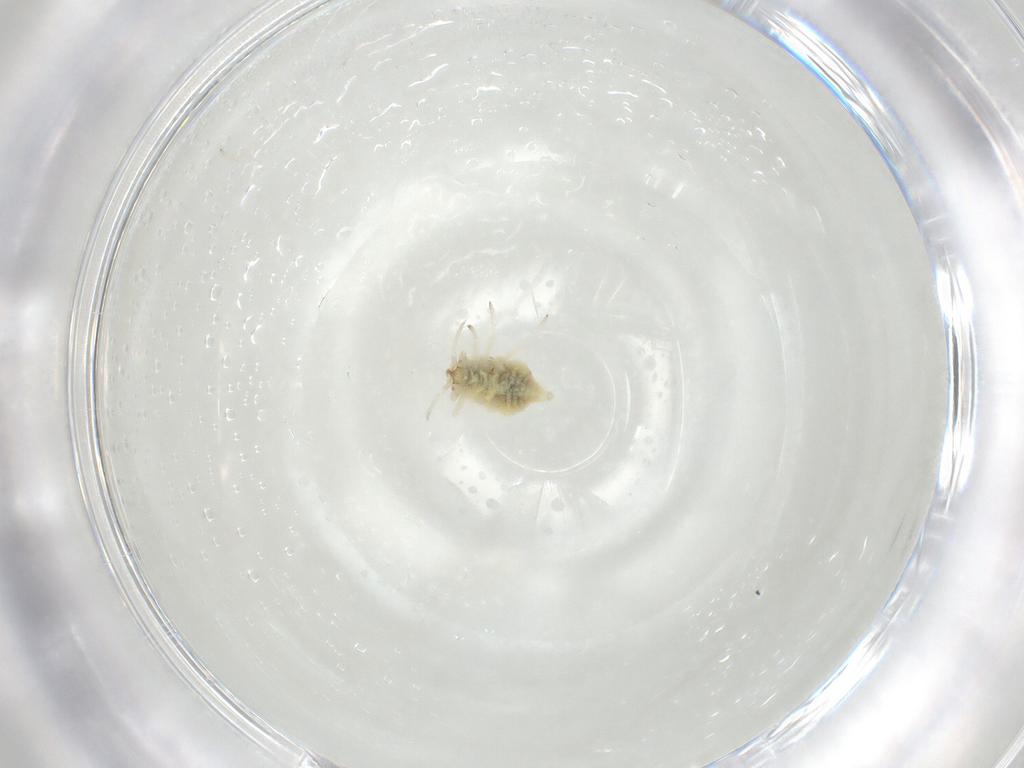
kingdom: Animalia
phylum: Arthropoda
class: Insecta
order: Neuroptera
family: Coniopterygidae
